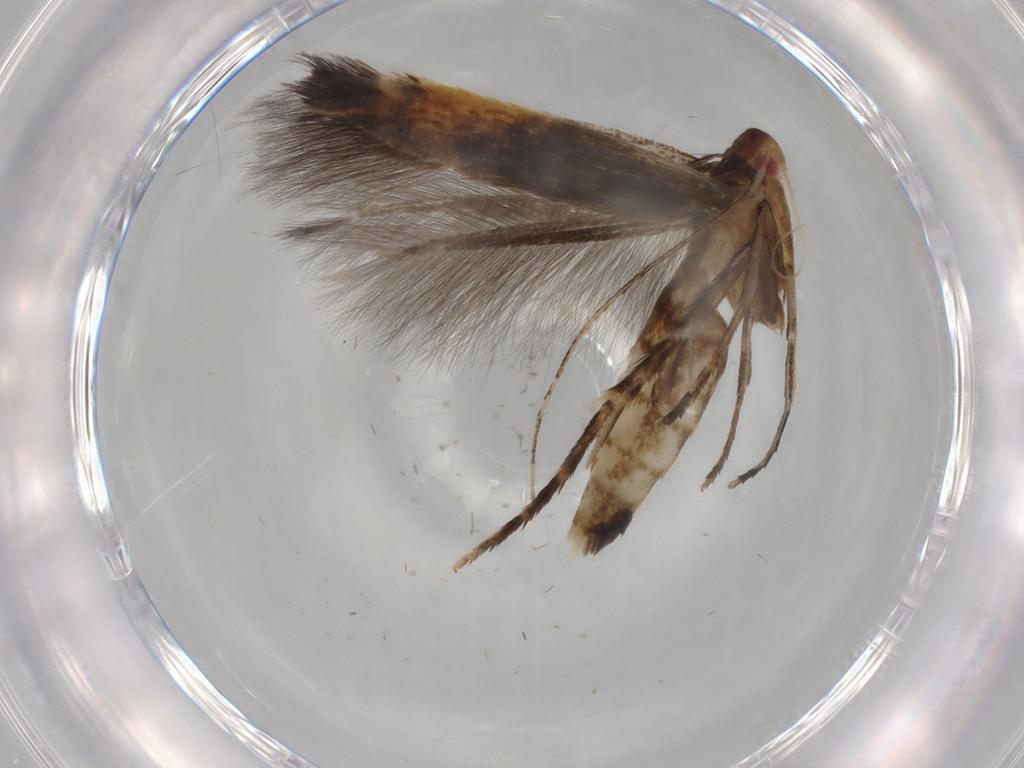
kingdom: Animalia
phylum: Arthropoda
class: Insecta
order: Lepidoptera
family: Cosmopterigidae
